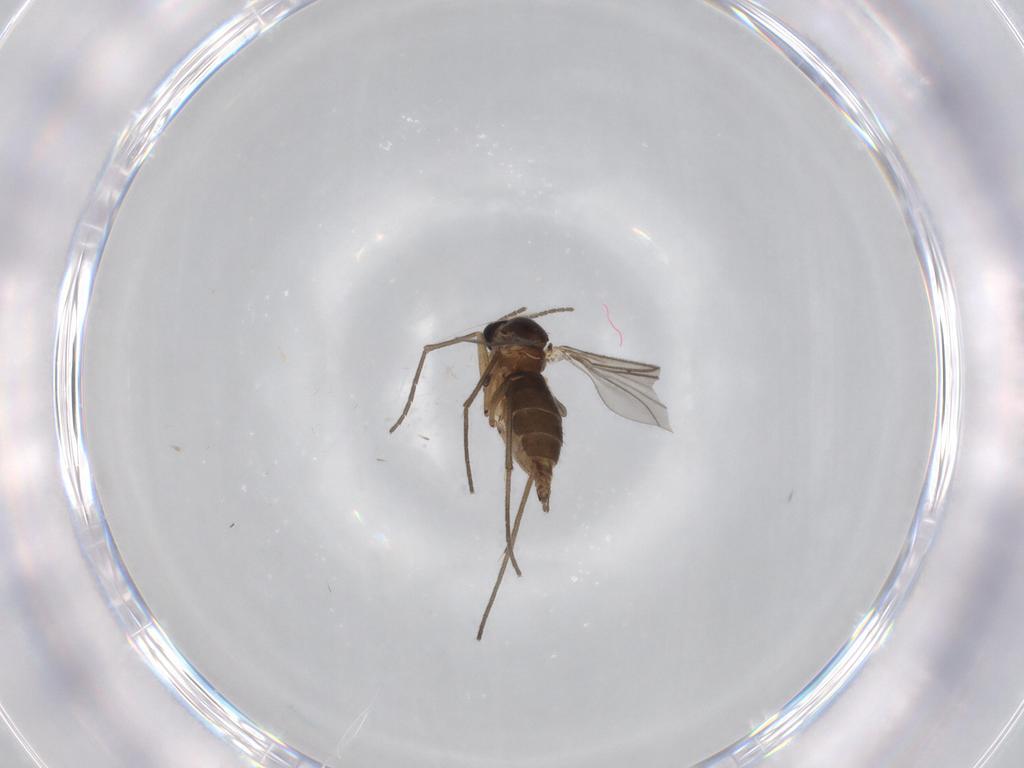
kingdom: Animalia
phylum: Arthropoda
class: Insecta
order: Diptera
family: Sciaridae
